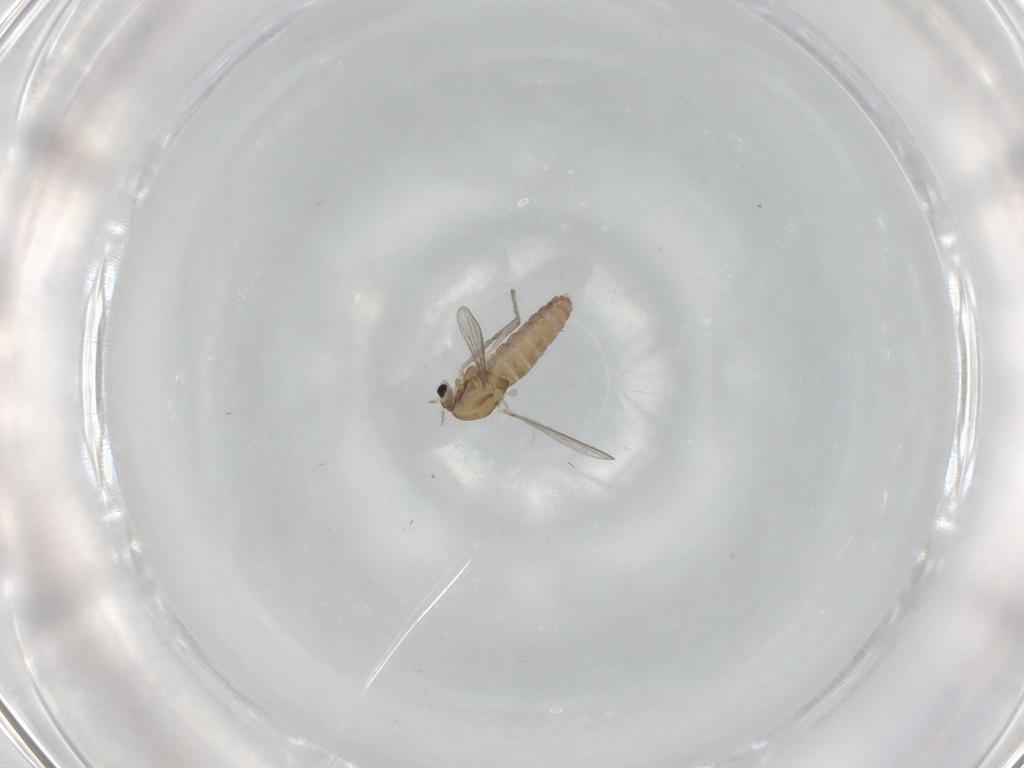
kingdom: Animalia
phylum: Arthropoda
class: Insecta
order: Diptera
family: Chironomidae
